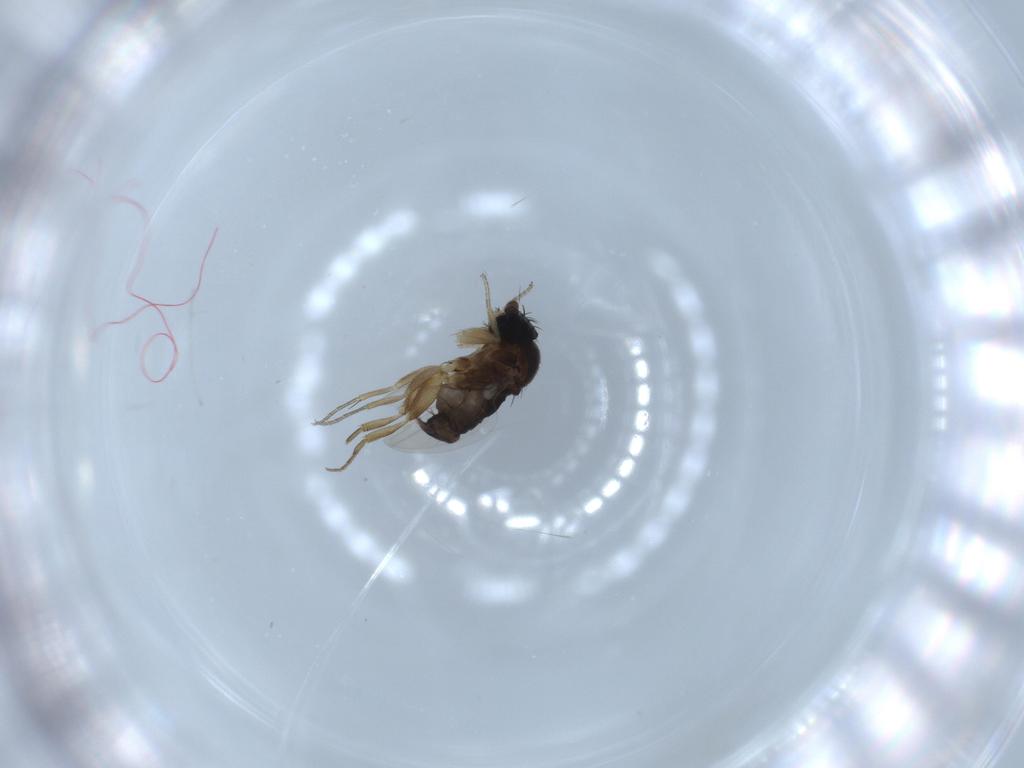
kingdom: Animalia
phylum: Arthropoda
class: Insecta
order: Diptera
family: Phoridae
